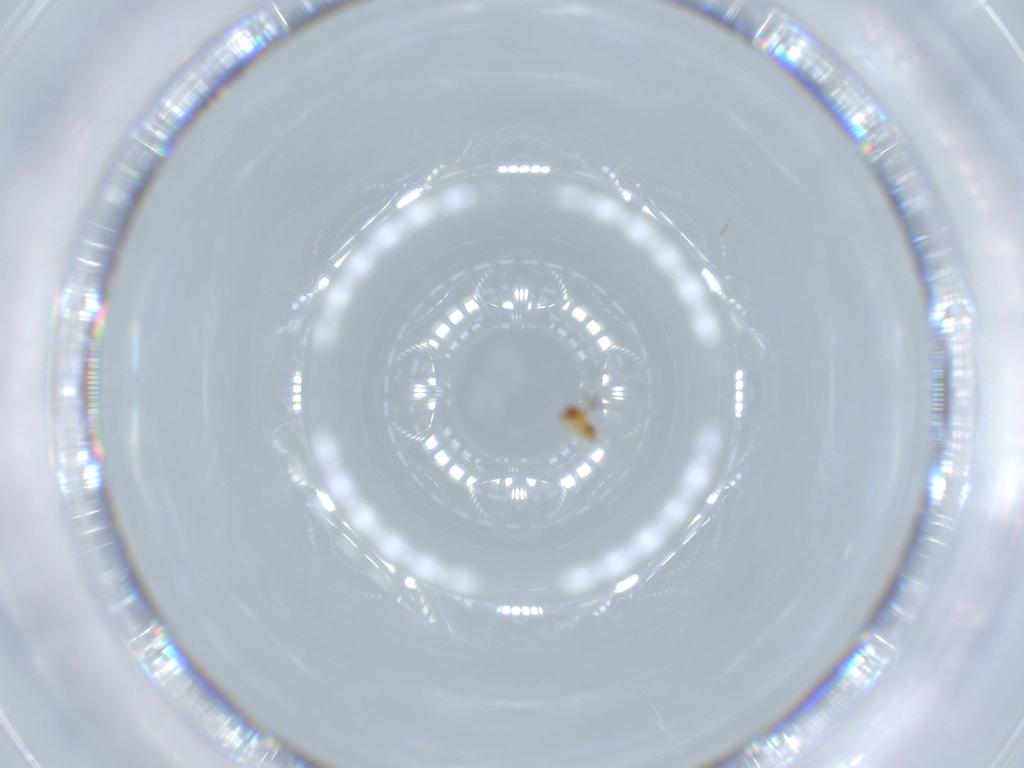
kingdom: Animalia
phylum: Arthropoda
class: Insecta
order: Hymenoptera
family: Trichogrammatidae
